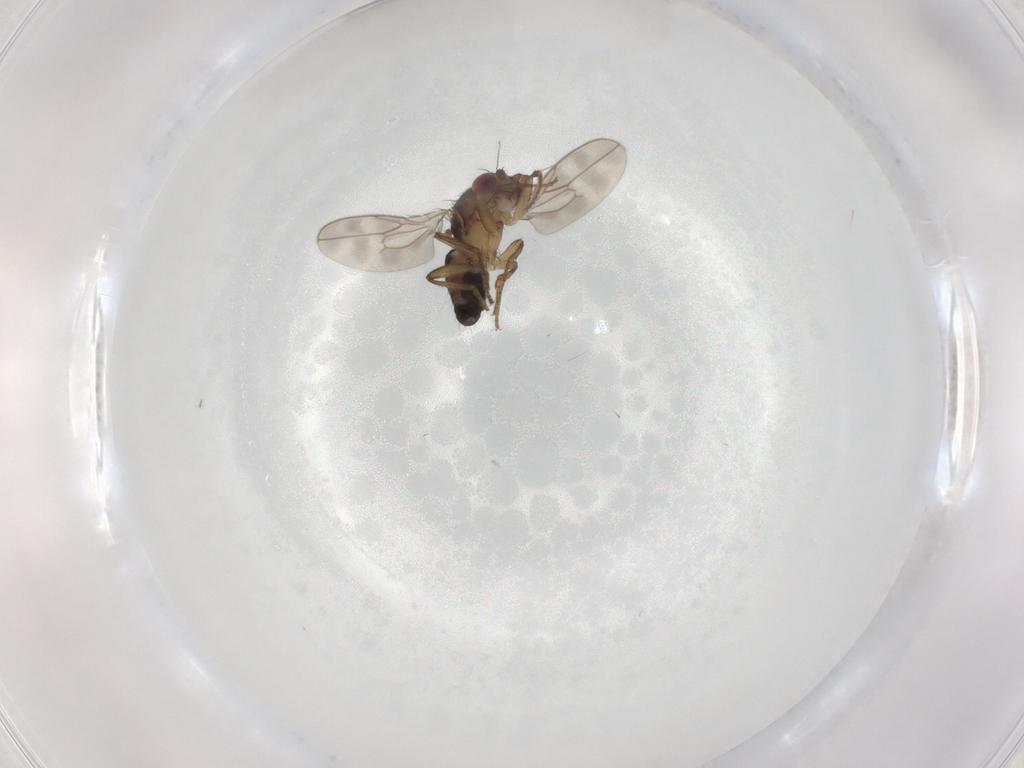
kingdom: Animalia
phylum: Arthropoda
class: Insecta
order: Diptera
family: Sphaeroceridae
